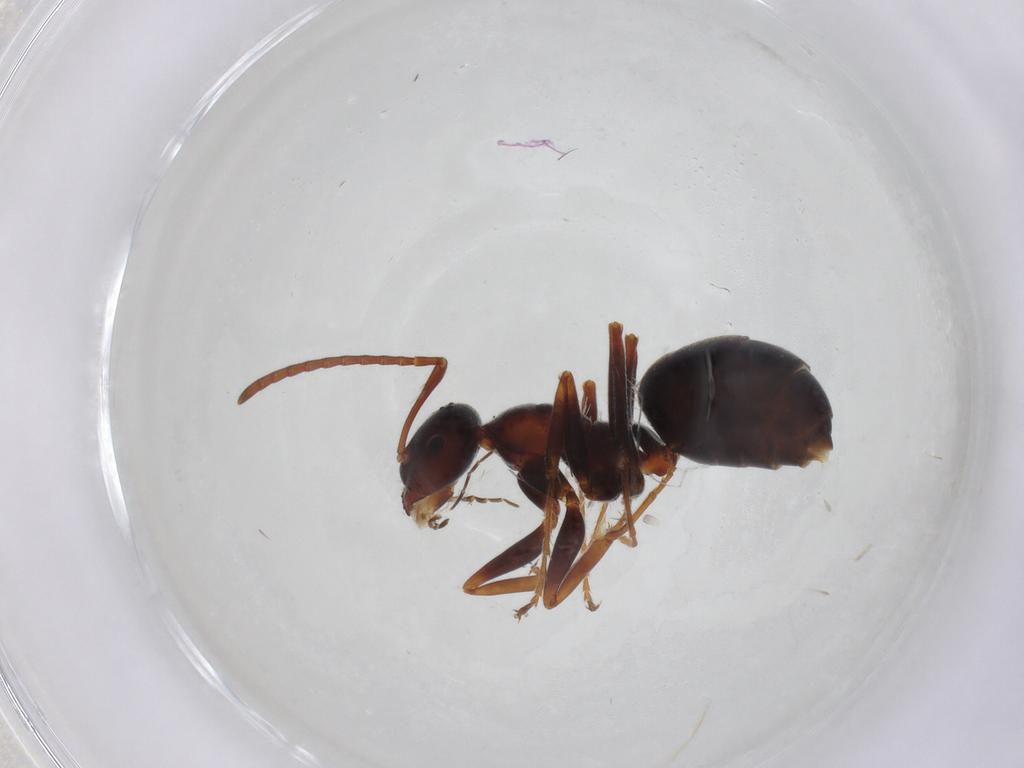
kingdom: Animalia
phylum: Arthropoda
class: Insecta
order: Hymenoptera
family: Formicidae
